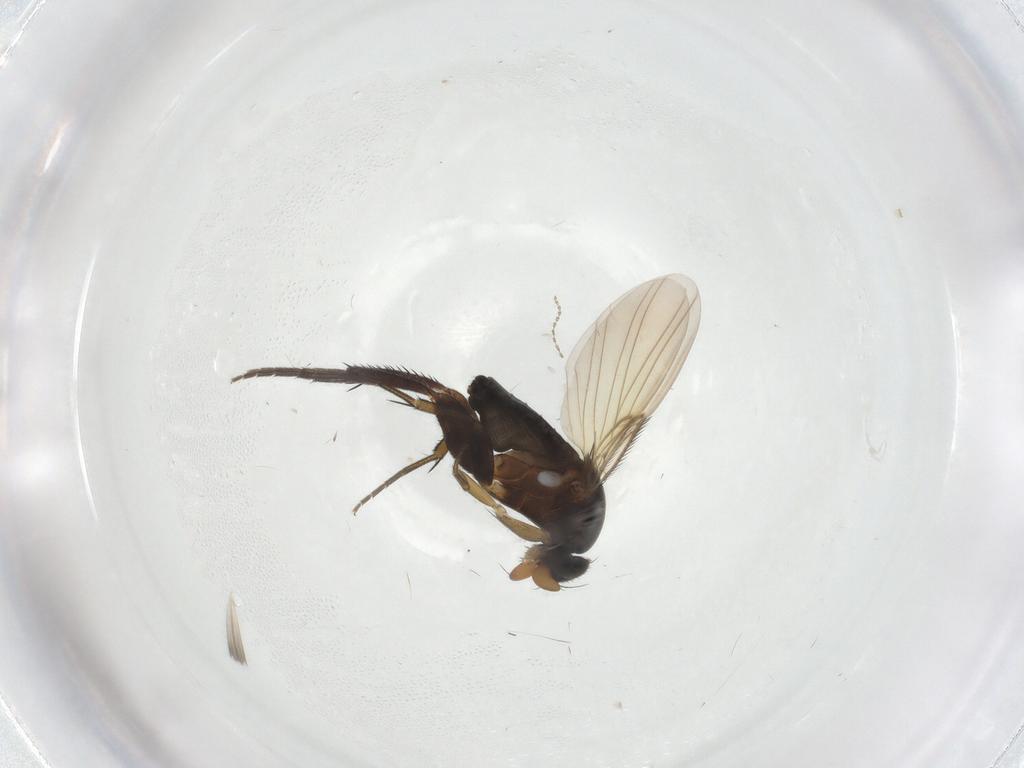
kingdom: Animalia
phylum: Arthropoda
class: Insecta
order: Diptera
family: Phoridae
